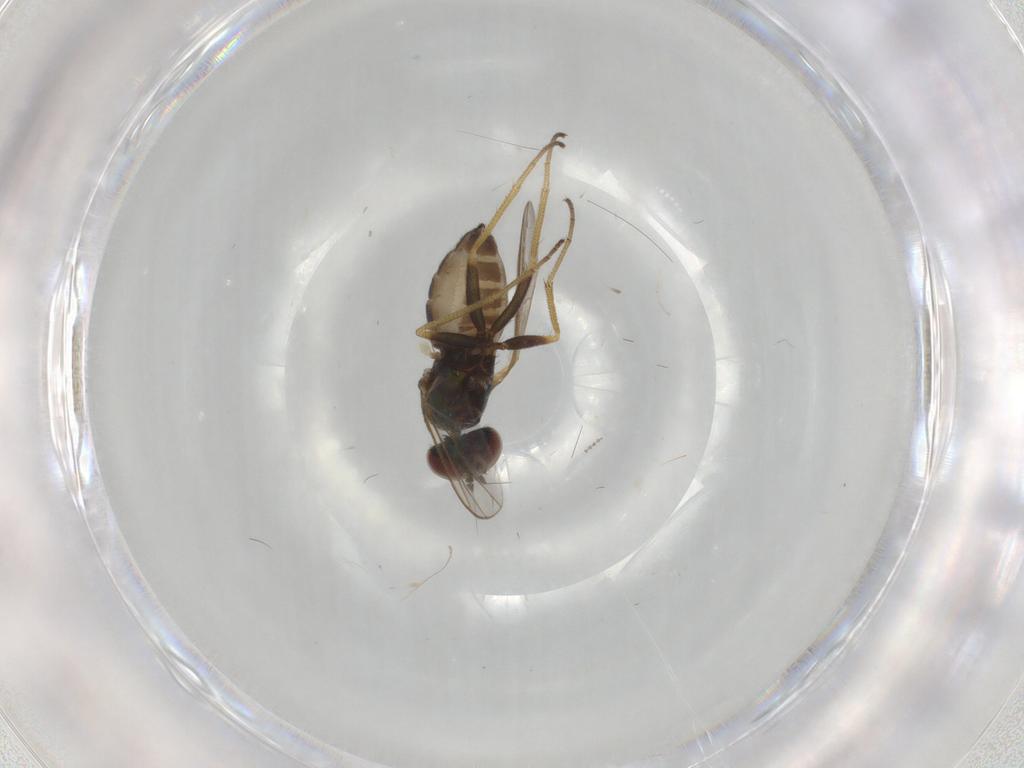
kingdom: Animalia
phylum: Arthropoda
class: Insecta
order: Diptera
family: Dolichopodidae
